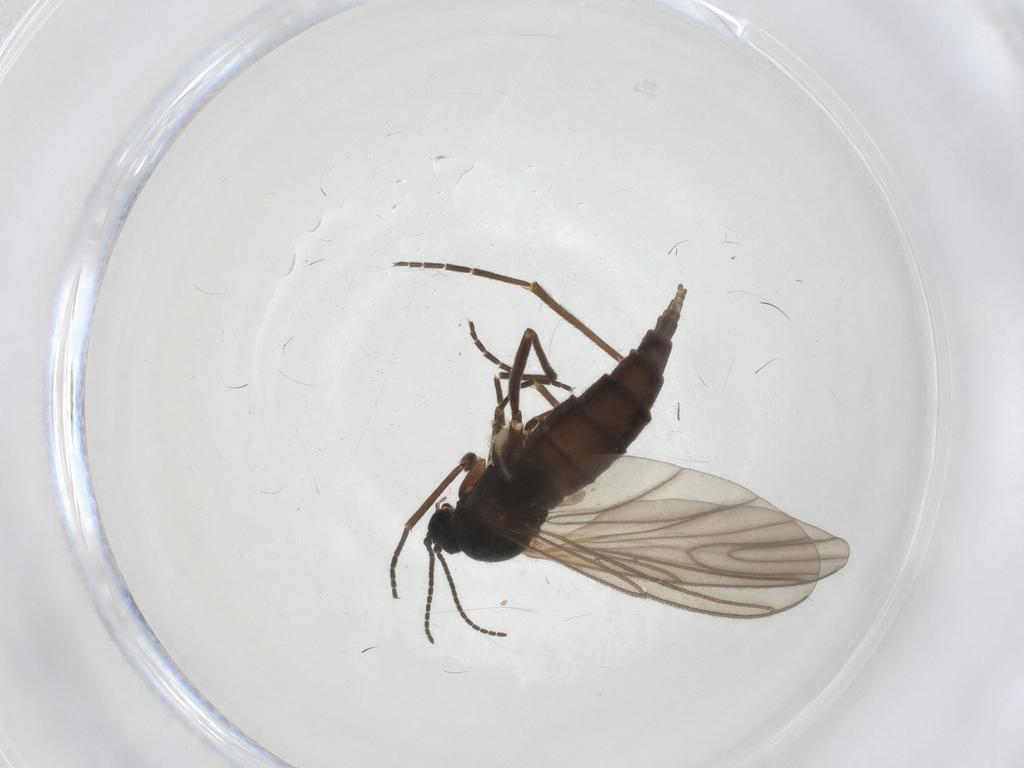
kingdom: Animalia
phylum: Arthropoda
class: Insecta
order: Diptera
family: Sciaridae
